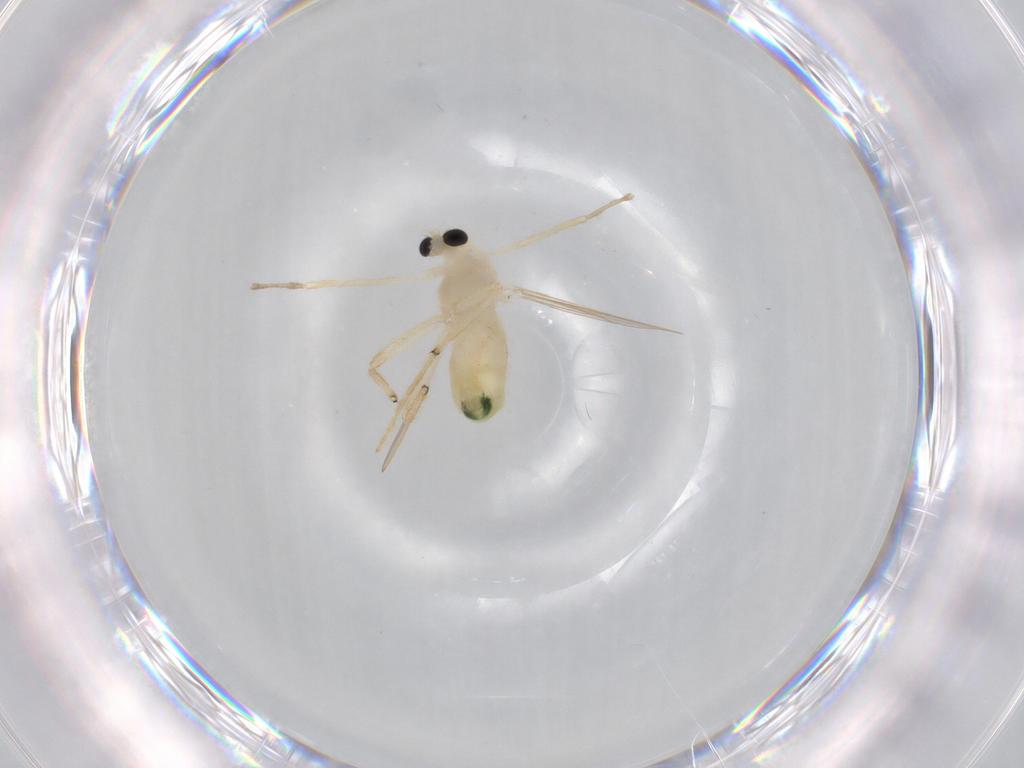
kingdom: Animalia
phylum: Arthropoda
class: Insecta
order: Diptera
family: Chironomidae
